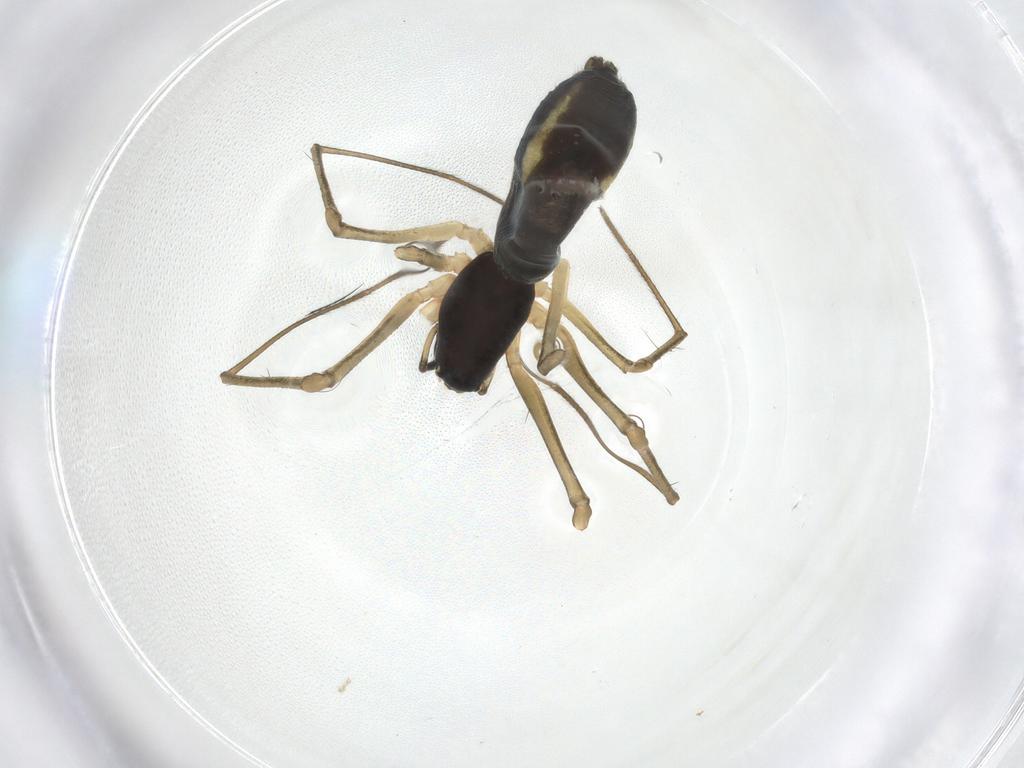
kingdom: Animalia
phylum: Arthropoda
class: Arachnida
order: Araneae
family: Linyphiidae
